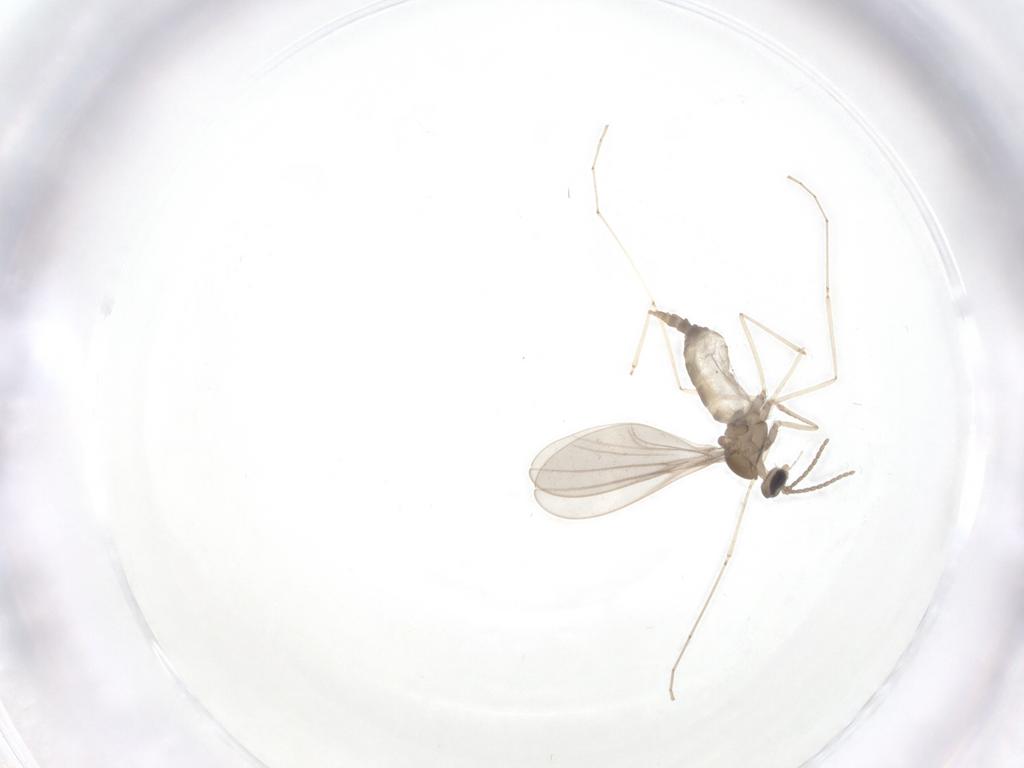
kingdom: Animalia
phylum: Arthropoda
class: Insecta
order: Diptera
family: Cecidomyiidae
